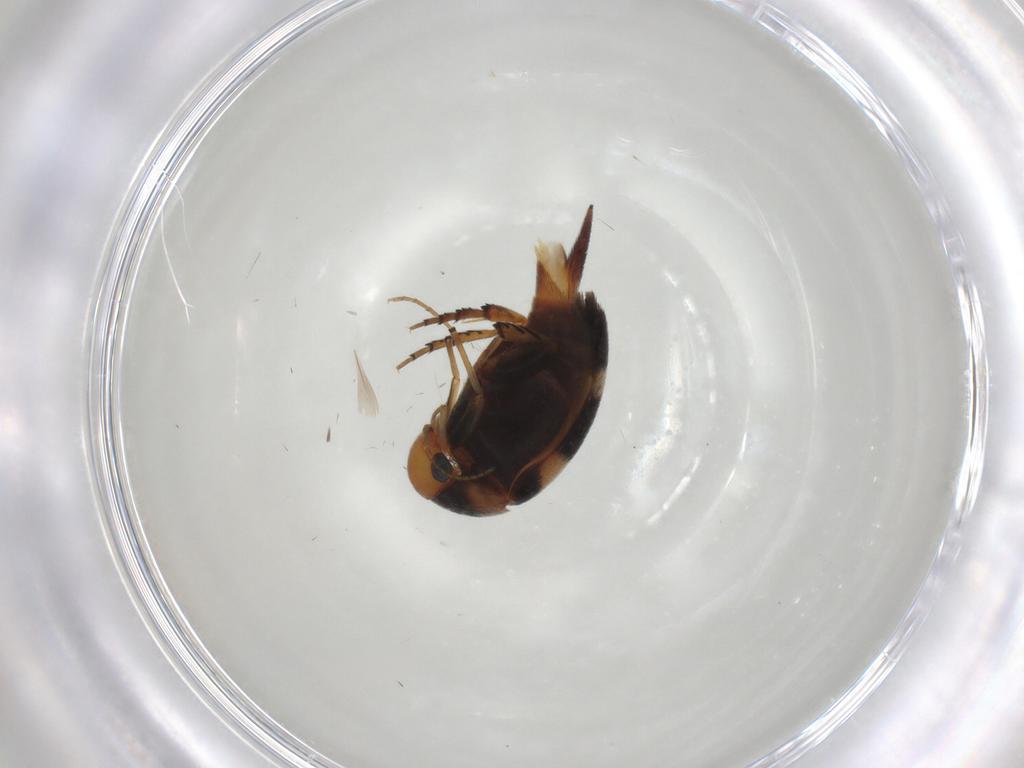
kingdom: Animalia
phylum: Arthropoda
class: Insecta
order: Coleoptera
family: Mordellidae
